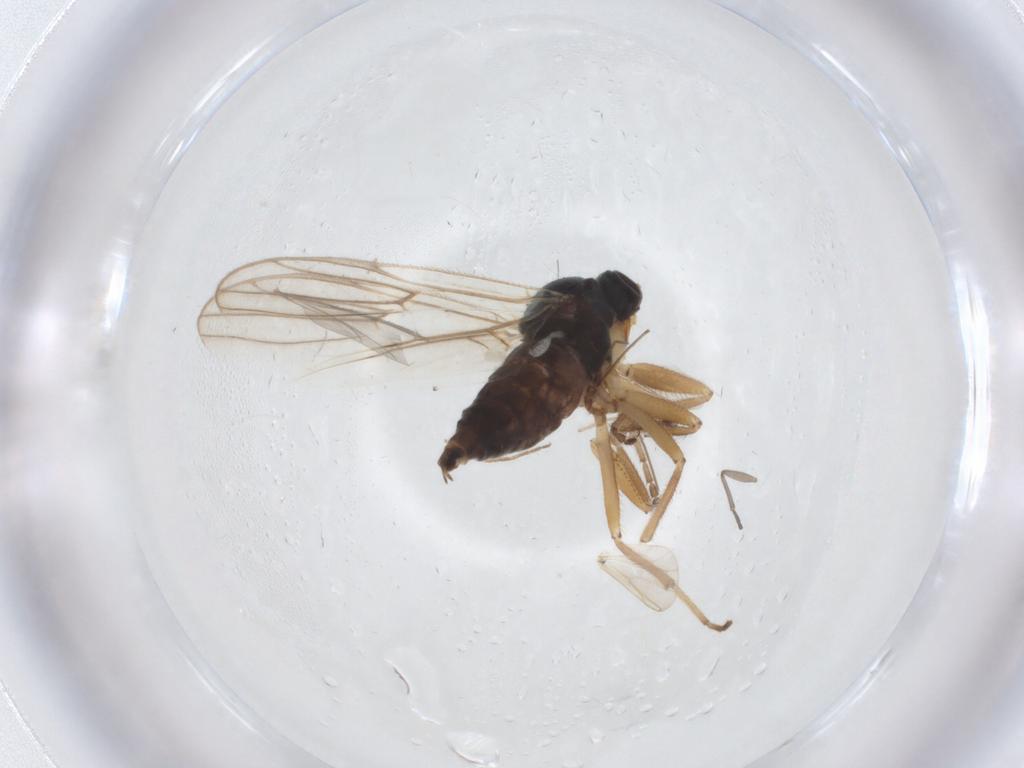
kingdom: Animalia
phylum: Arthropoda
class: Insecta
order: Diptera
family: Hybotidae
